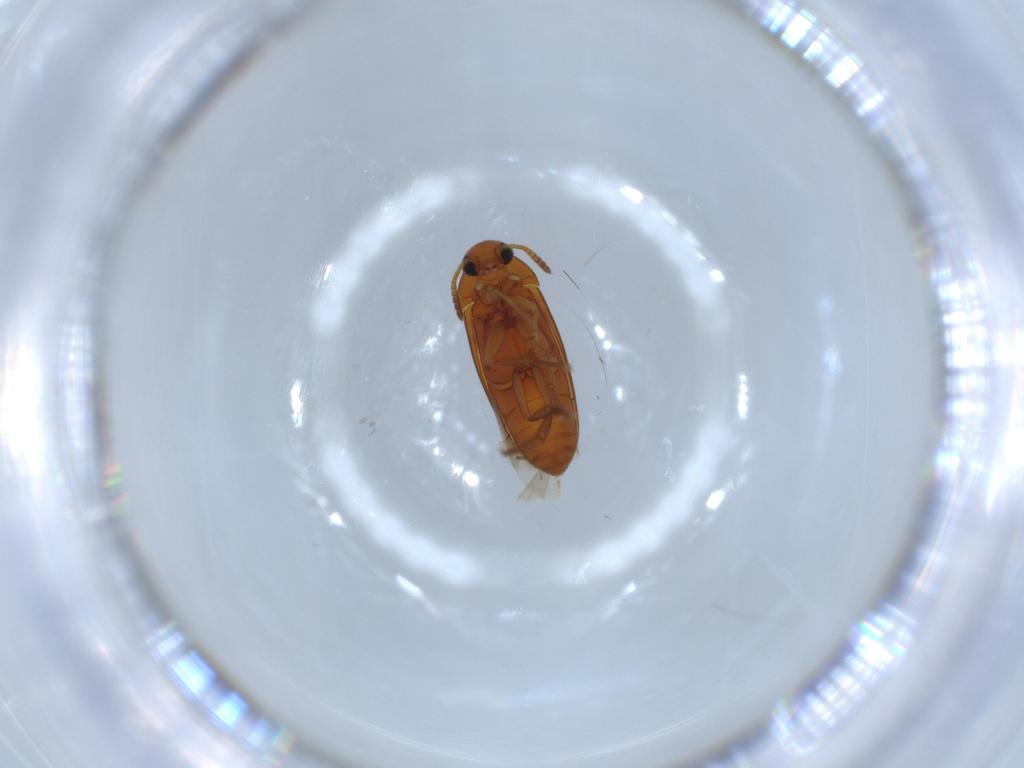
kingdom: Animalia
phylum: Arthropoda
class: Insecta
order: Coleoptera
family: Scraptiidae
